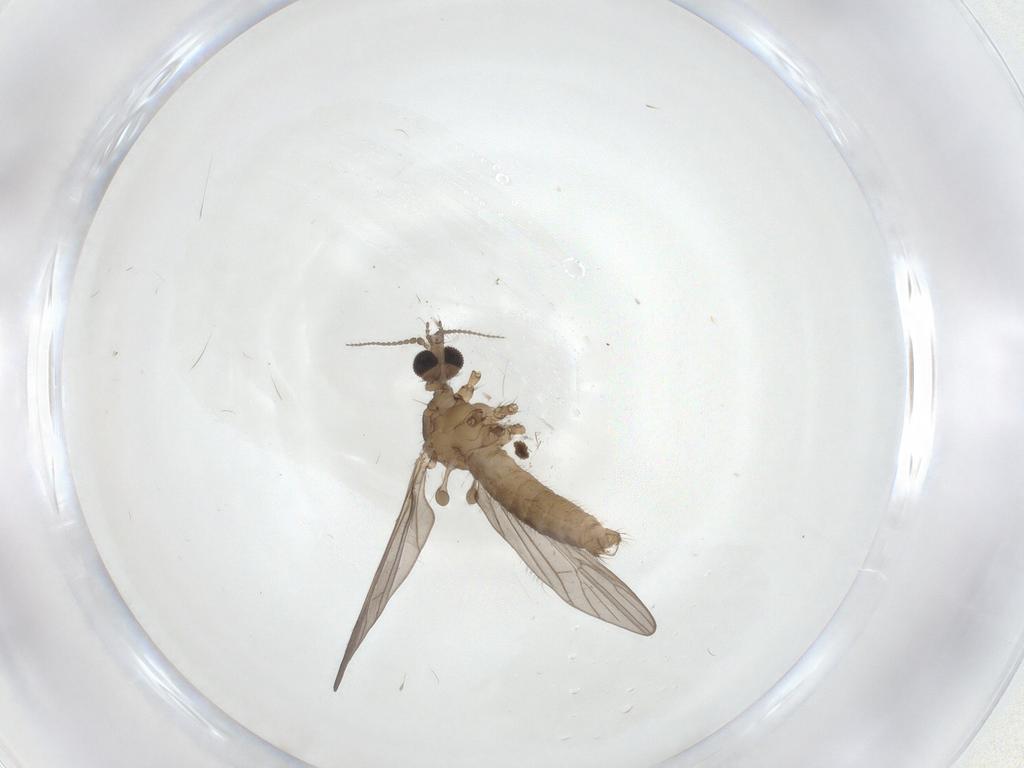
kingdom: Animalia
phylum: Arthropoda
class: Insecta
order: Diptera
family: Limoniidae
